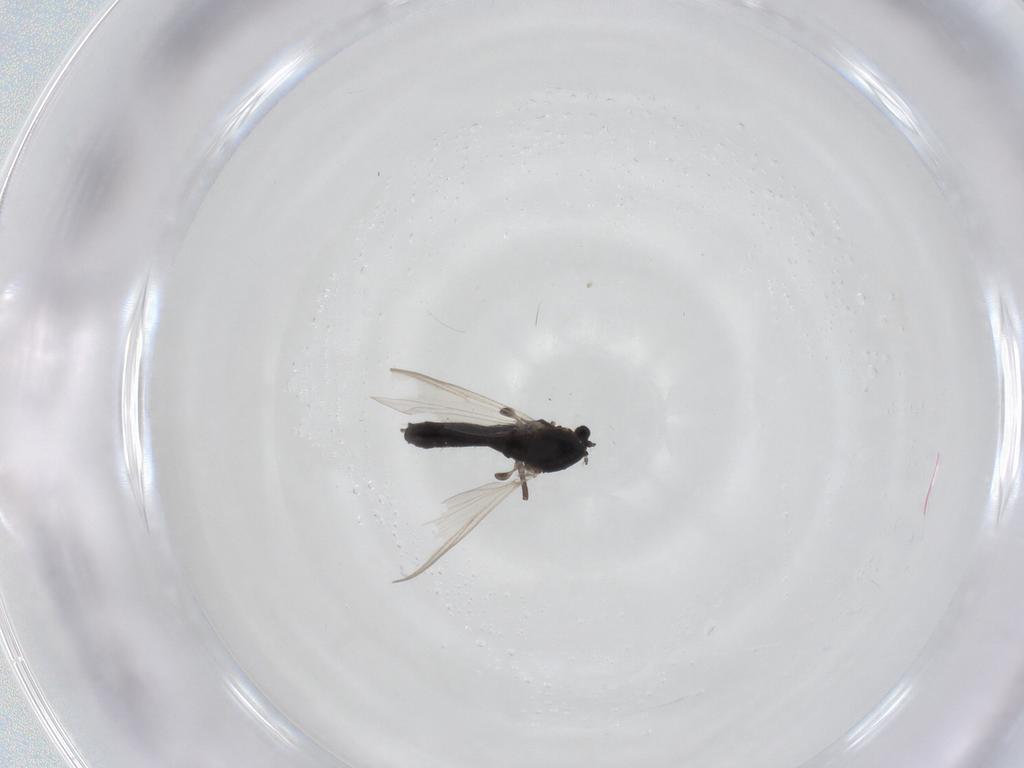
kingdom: Animalia
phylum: Arthropoda
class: Insecta
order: Diptera
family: Chironomidae
